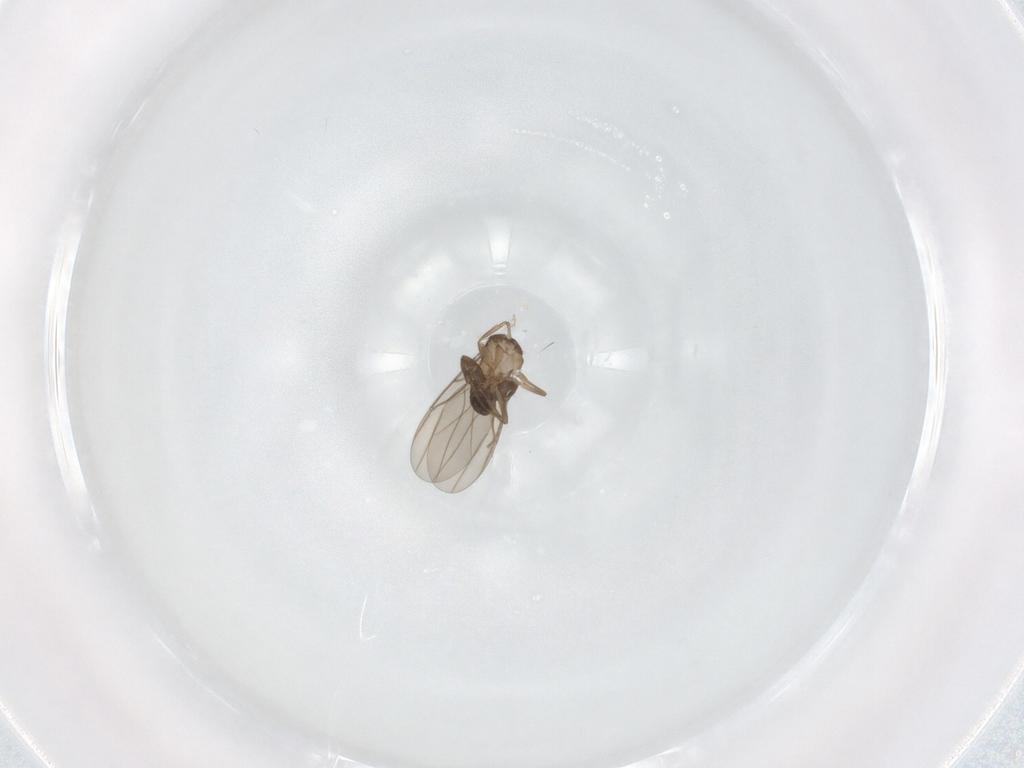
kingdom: Animalia
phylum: Arthropoda
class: Insecta
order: Diptera
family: Phoridae
